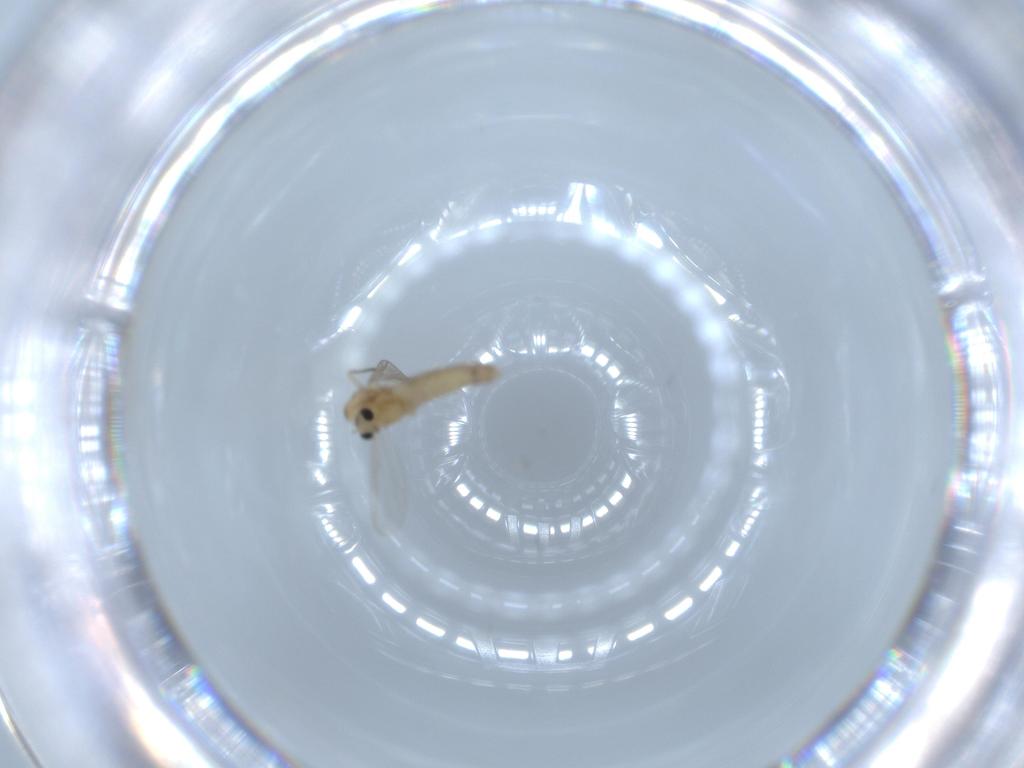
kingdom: Animalia
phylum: Arthropoda
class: Insecta
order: Diptera
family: Chironomidae
